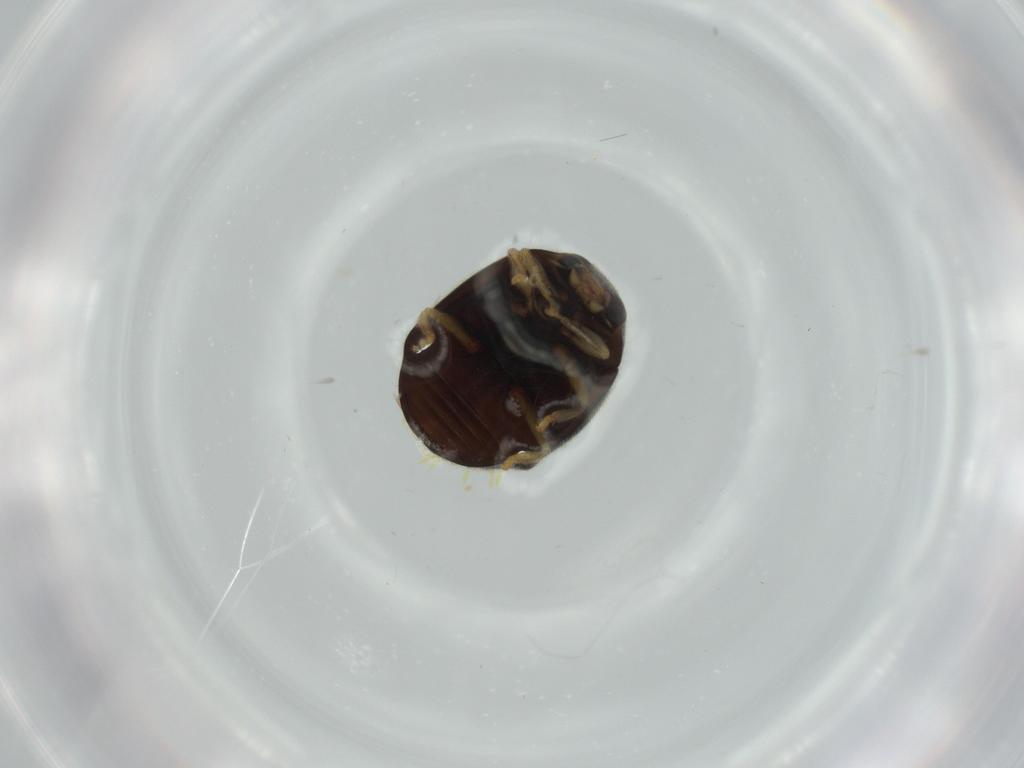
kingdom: Animalia
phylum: Arthropoda
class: Insecta
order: Coleoptera
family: Coccinellidae
